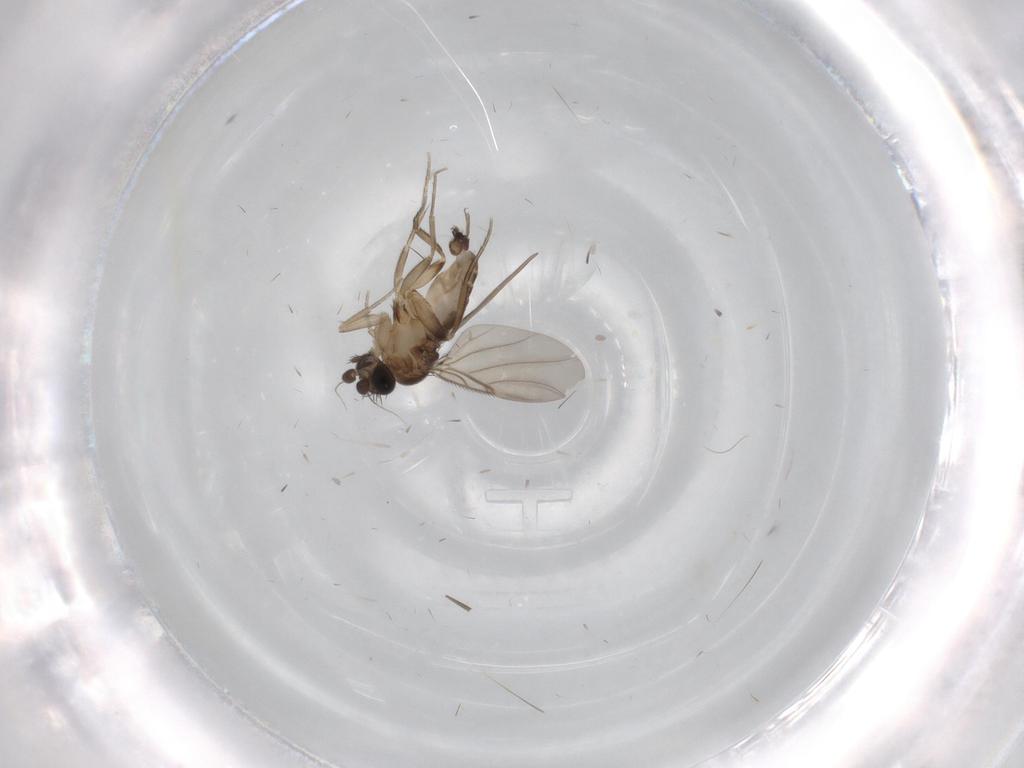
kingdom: Animalia
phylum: Arthropoda
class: Insecta
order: Diptera
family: Phoridae
